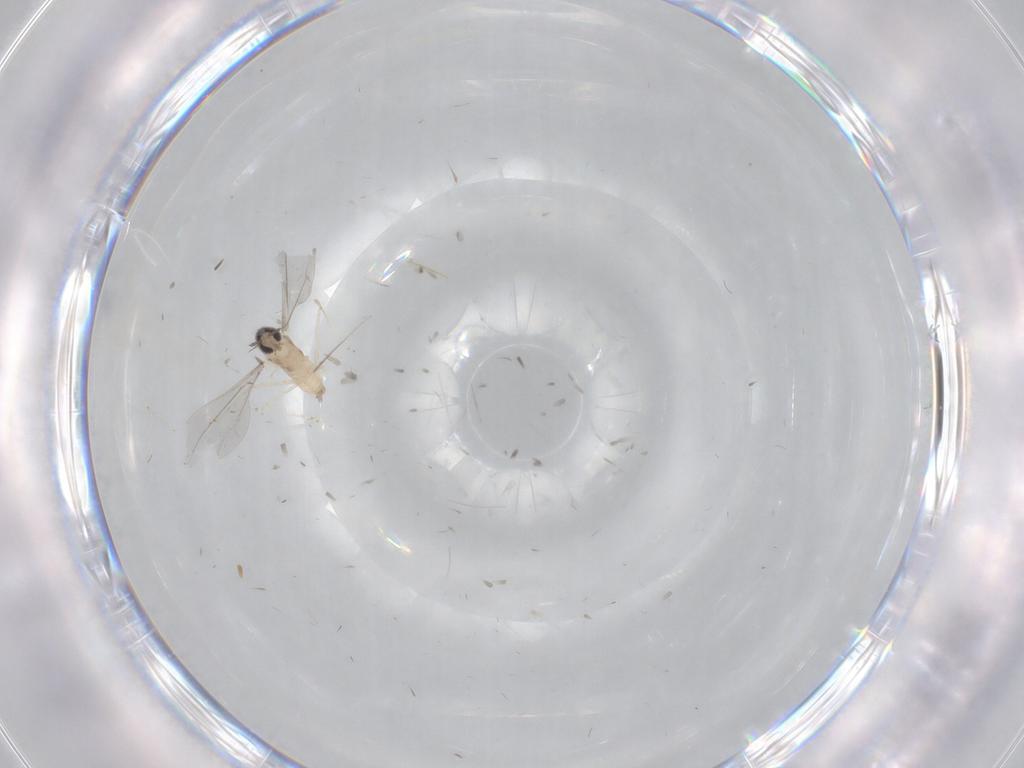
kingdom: Animalia
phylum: Arthropoda
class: Insecta
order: Diptera
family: Cecidomyiidae
